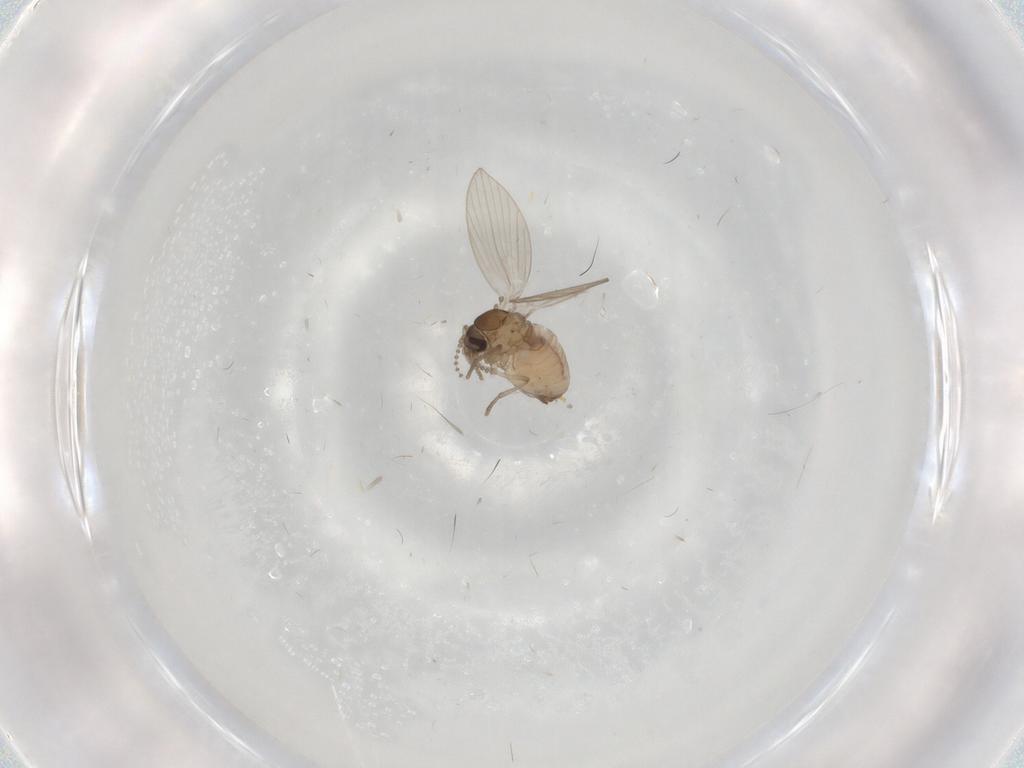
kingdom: Animalia
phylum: Arthropoda
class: Insecta
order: Diptera
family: Psychodidae
